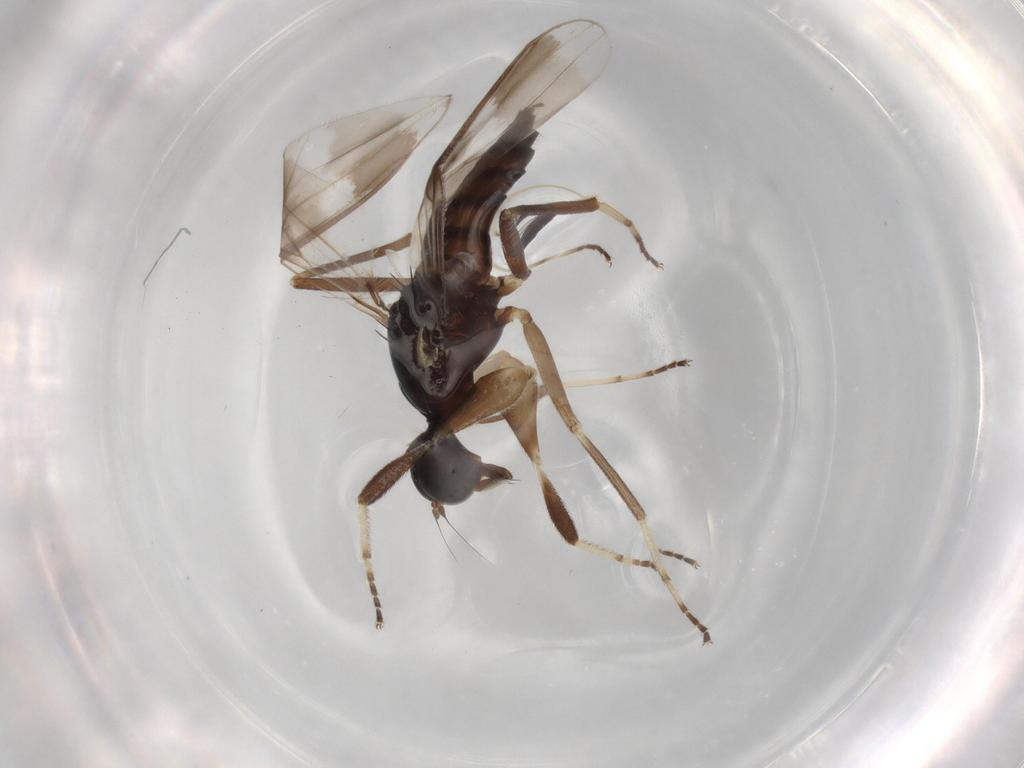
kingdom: Animalia
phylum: Arthropoda
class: Insecta
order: Diptera
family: Hybotidae
